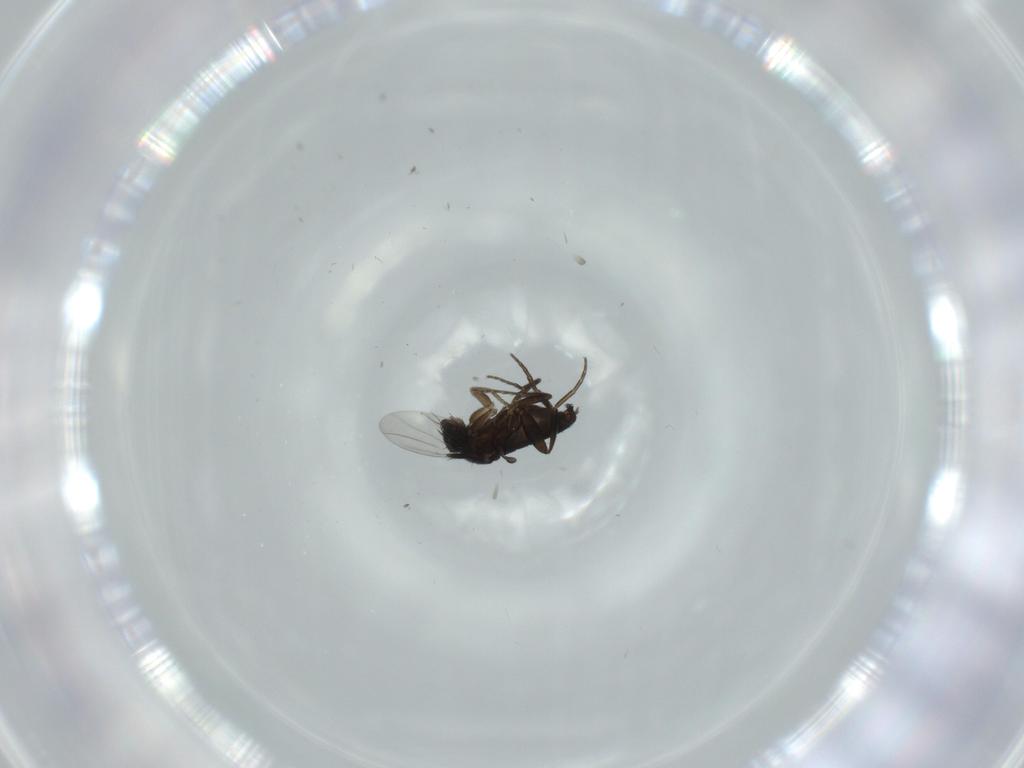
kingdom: Animalia
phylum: Arthropoda
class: Insecta
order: Diptera
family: Phoridae
